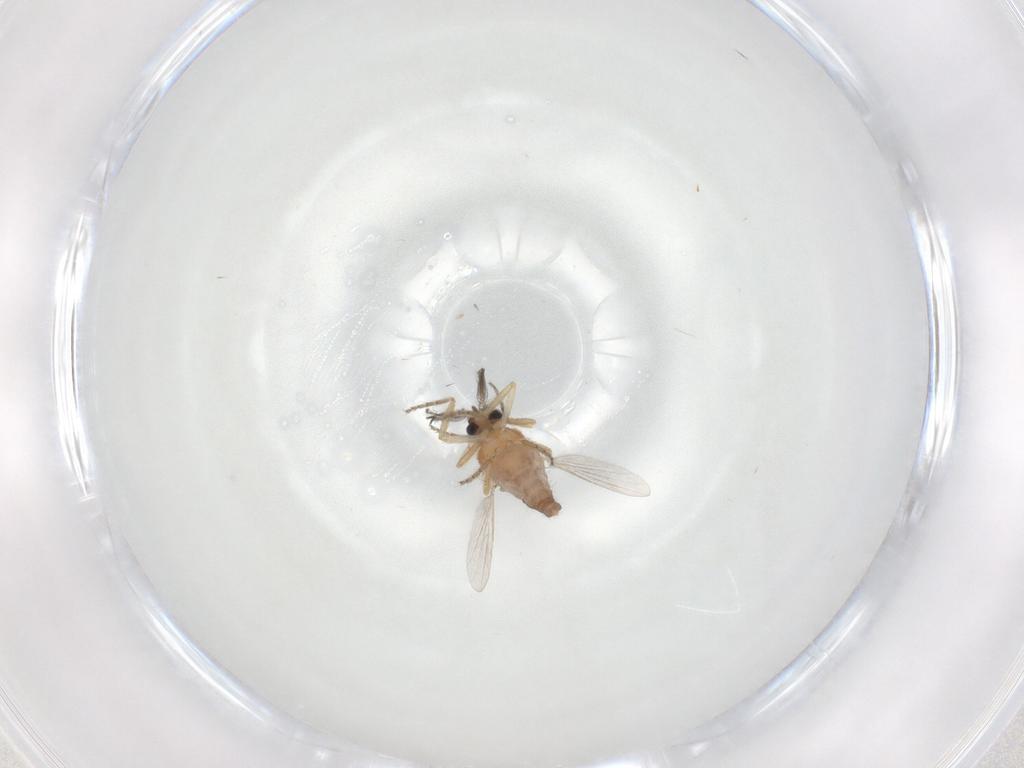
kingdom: Animalia
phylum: Arthropoda
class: Insecta
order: Diptera
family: Ceratopogonidae
